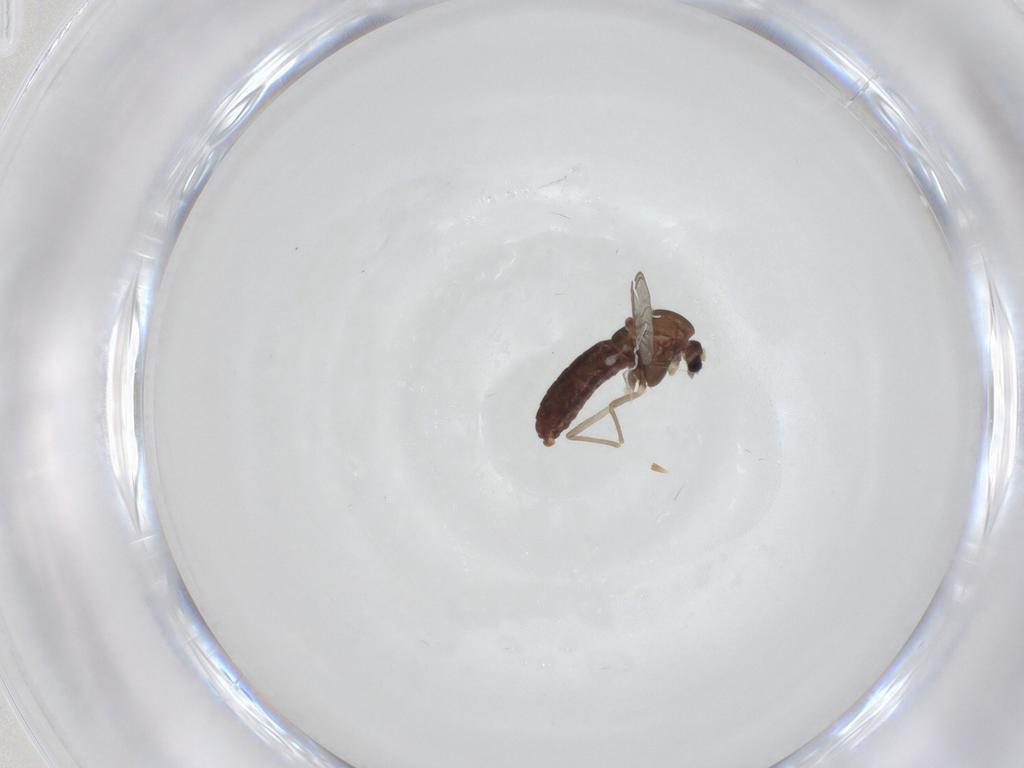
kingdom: Animalia
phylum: Arthropoda
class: Insecta
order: Diptera
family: Chironomidae
